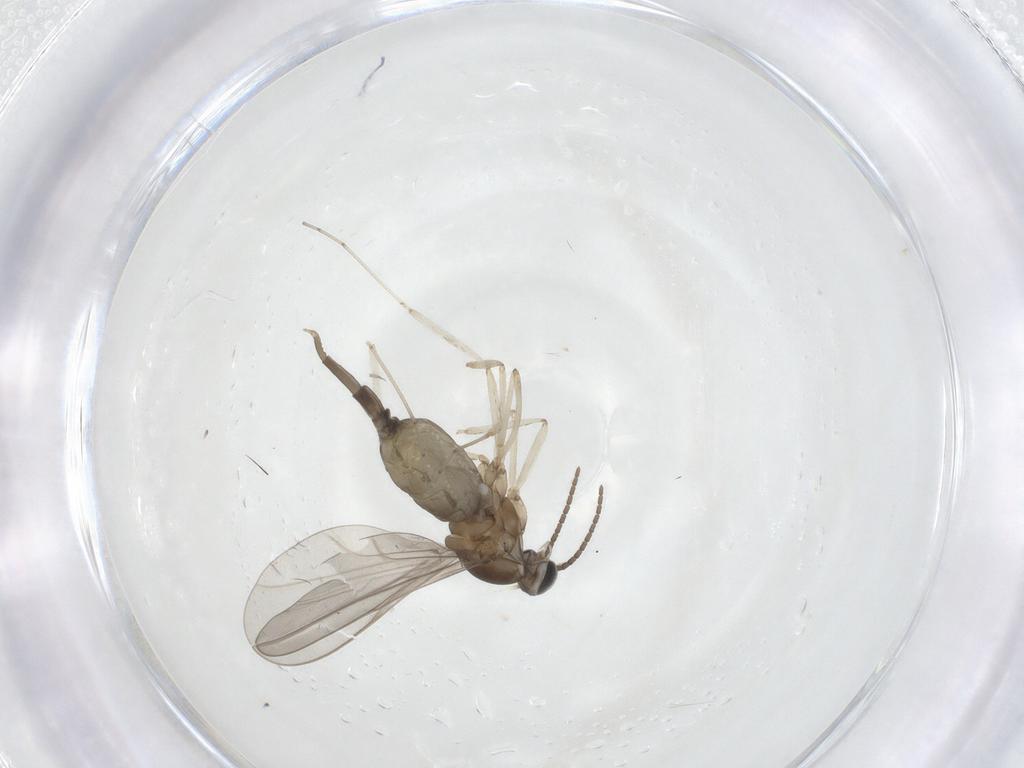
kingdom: Animalia
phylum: Arthropoda
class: Insecta
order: Diptera
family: Cecidomyiidae
